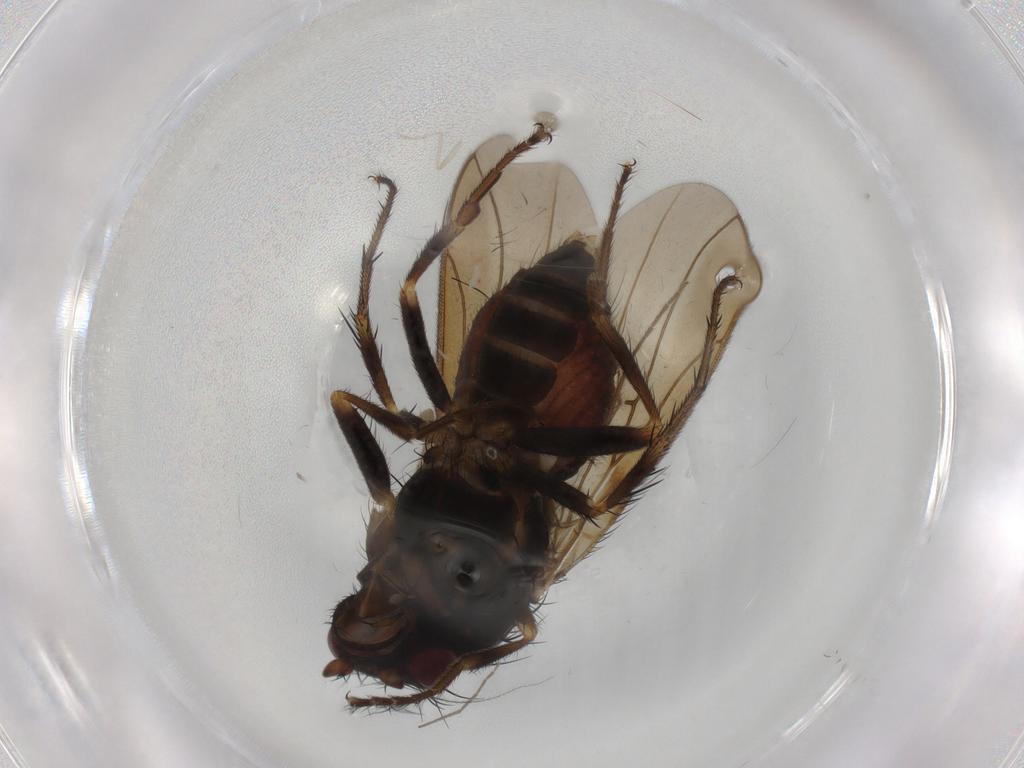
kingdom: Animalia
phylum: Arthropoda
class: Insecta
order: Diptera
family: Sphaeroceridae
